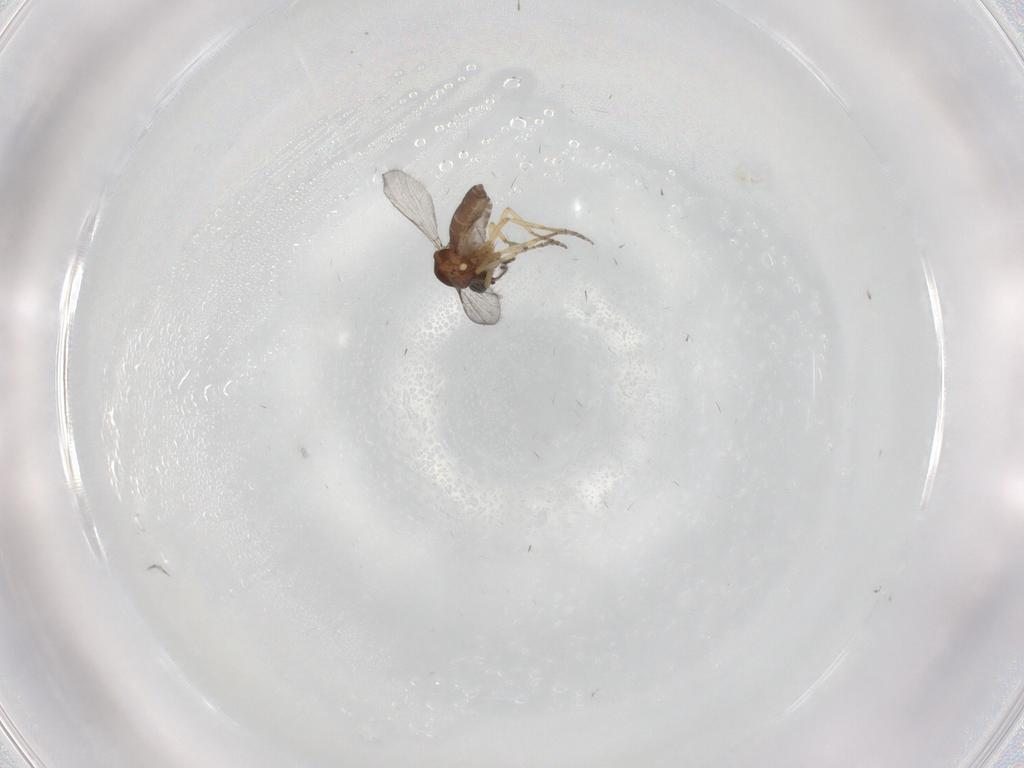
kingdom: Animalia
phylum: Arthropoda
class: Insecta
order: Diptera
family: Ceratopogonidae
